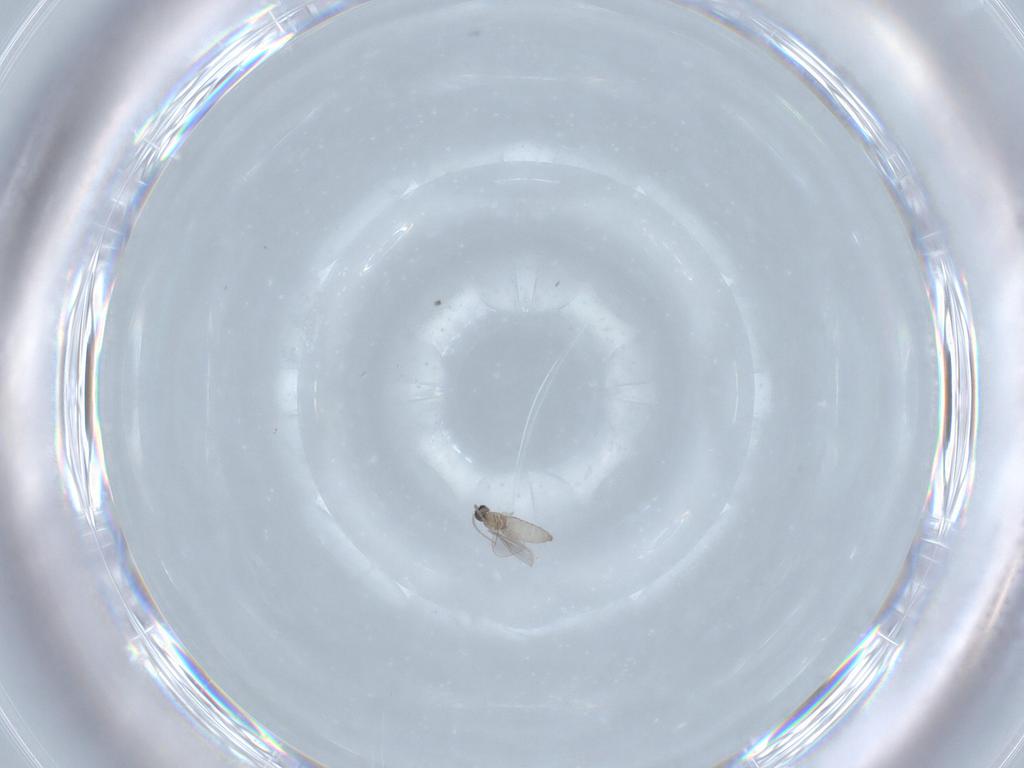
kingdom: Animalia
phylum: Arthropoda
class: Insecta
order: Diptera
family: Cecidomyiidae
